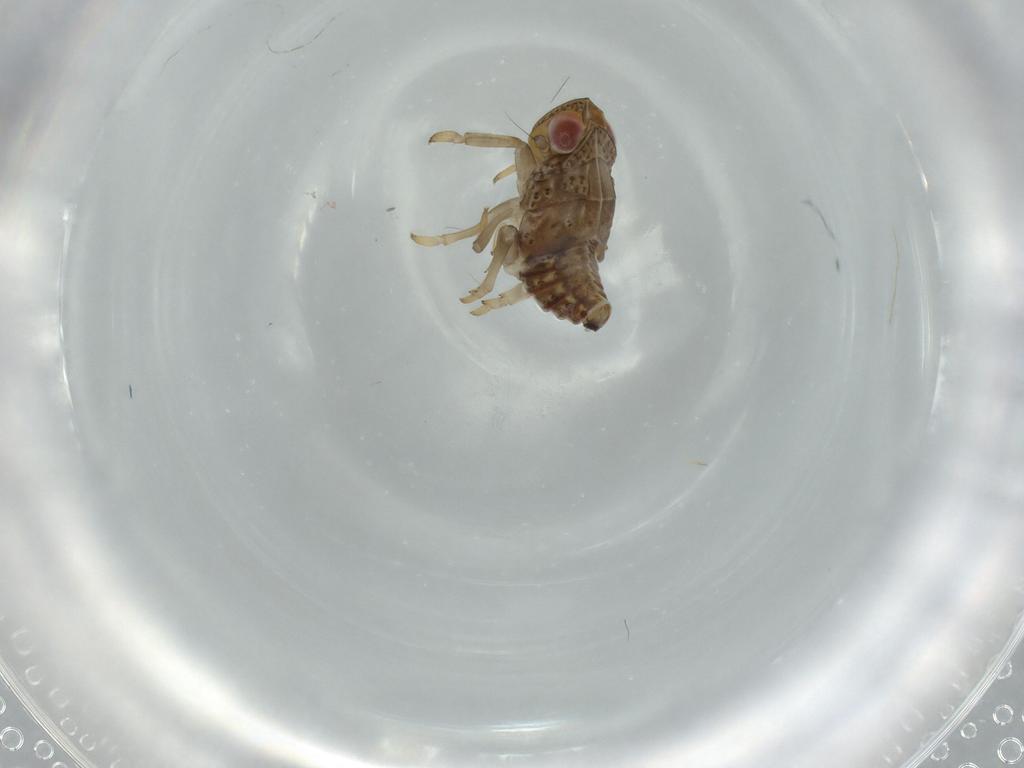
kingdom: Animalia
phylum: Arthropoda
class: Insecta
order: Hemiptera
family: Issidae
